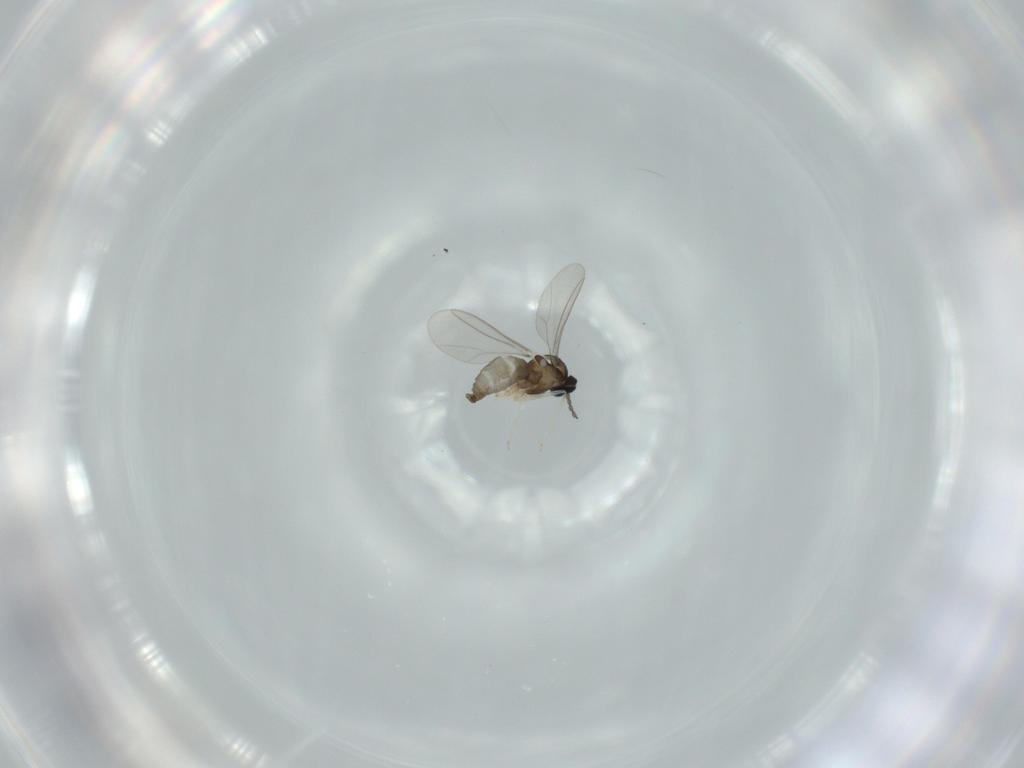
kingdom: Animalia
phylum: Arthropoda
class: Insecta
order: Diptera
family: Cecidomyiidae
